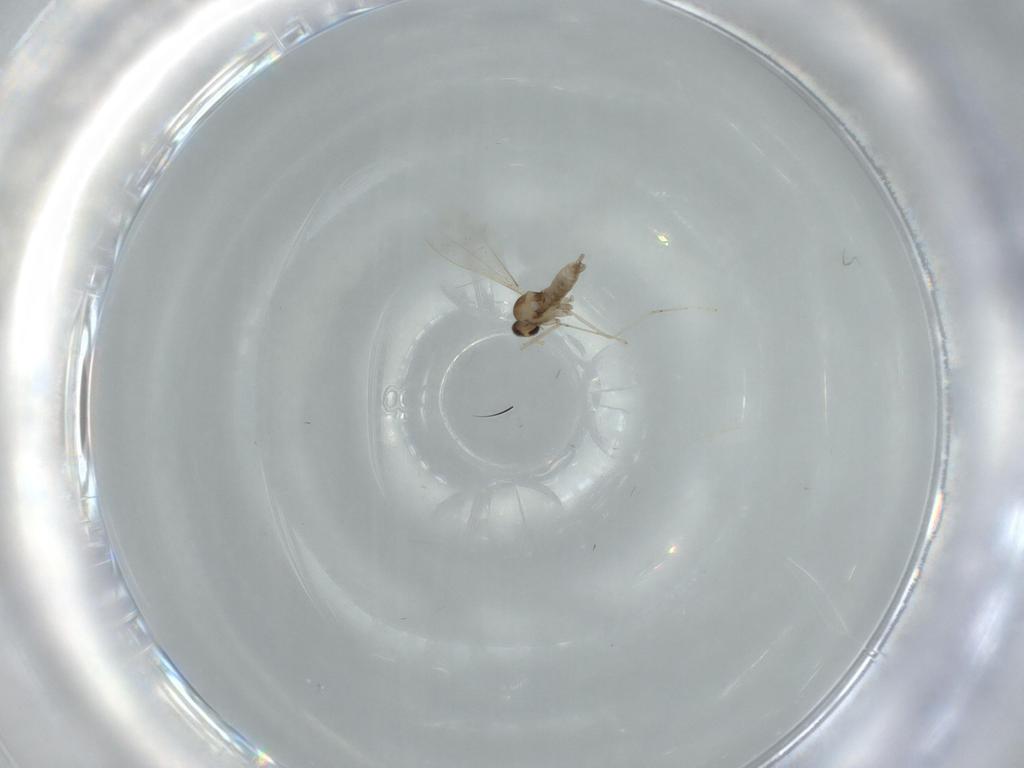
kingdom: Animalia
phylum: Arthropoda
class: Insecta
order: Diptera
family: Cecidomyiidae
